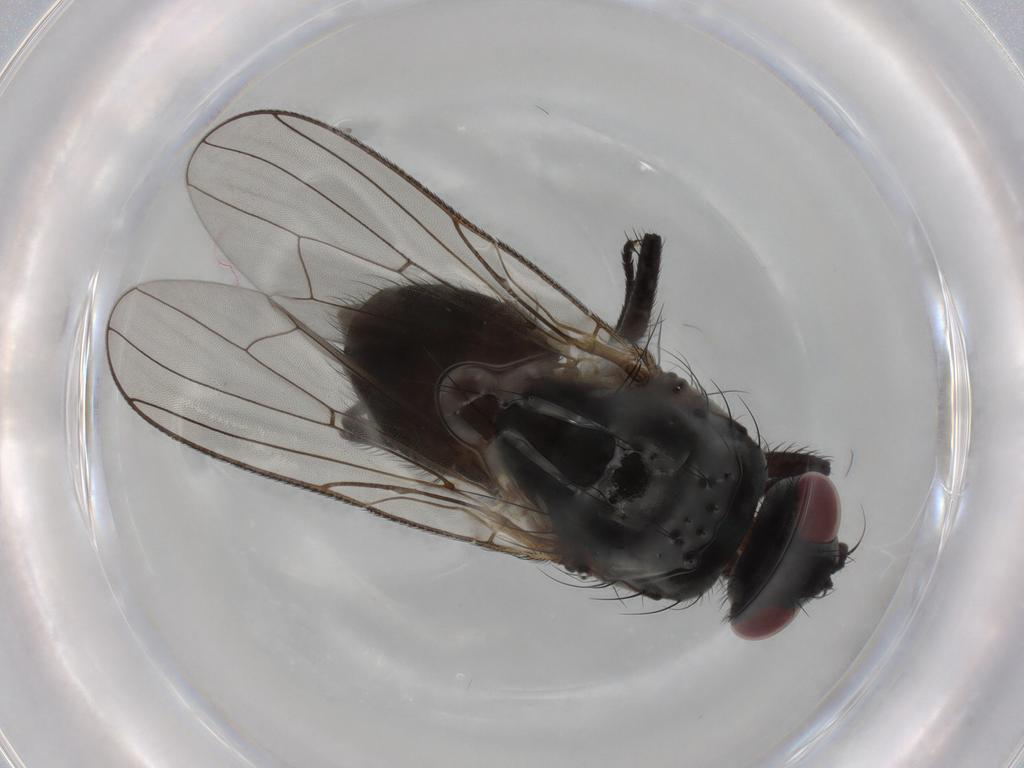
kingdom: Animalia
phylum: Arthropoda
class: Insecta
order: Diptera
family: Anthomyiidae
